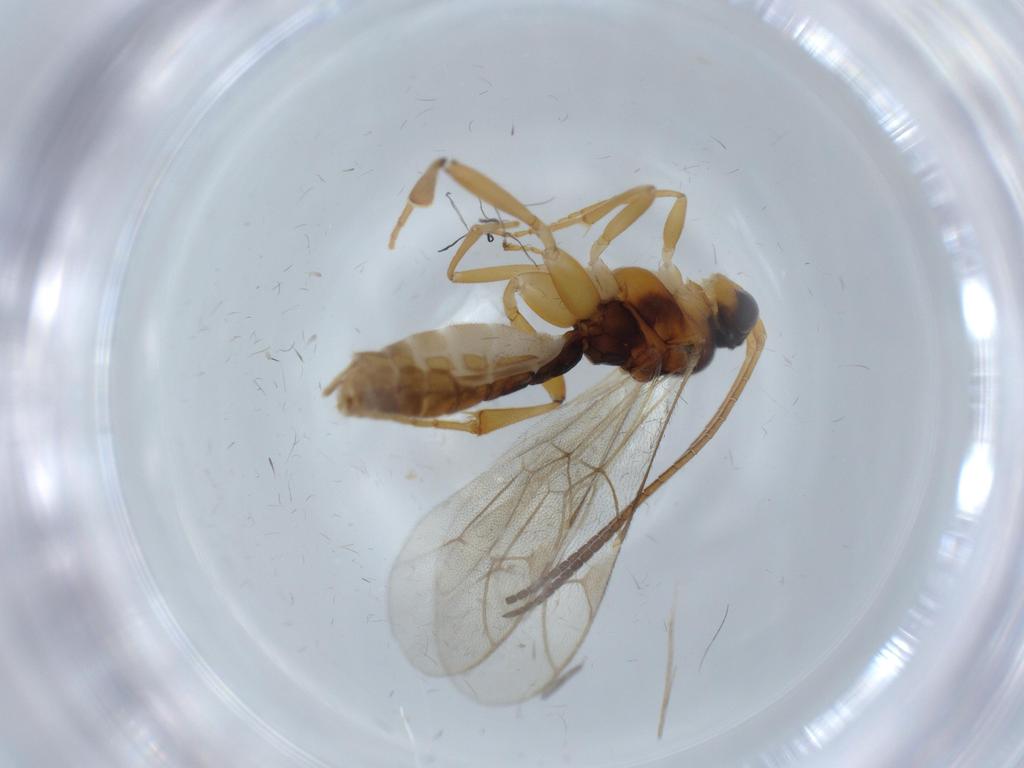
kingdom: Animalia
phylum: Arthropoda
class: Insecta
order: Hymenoptera
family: Ichneumonidae
